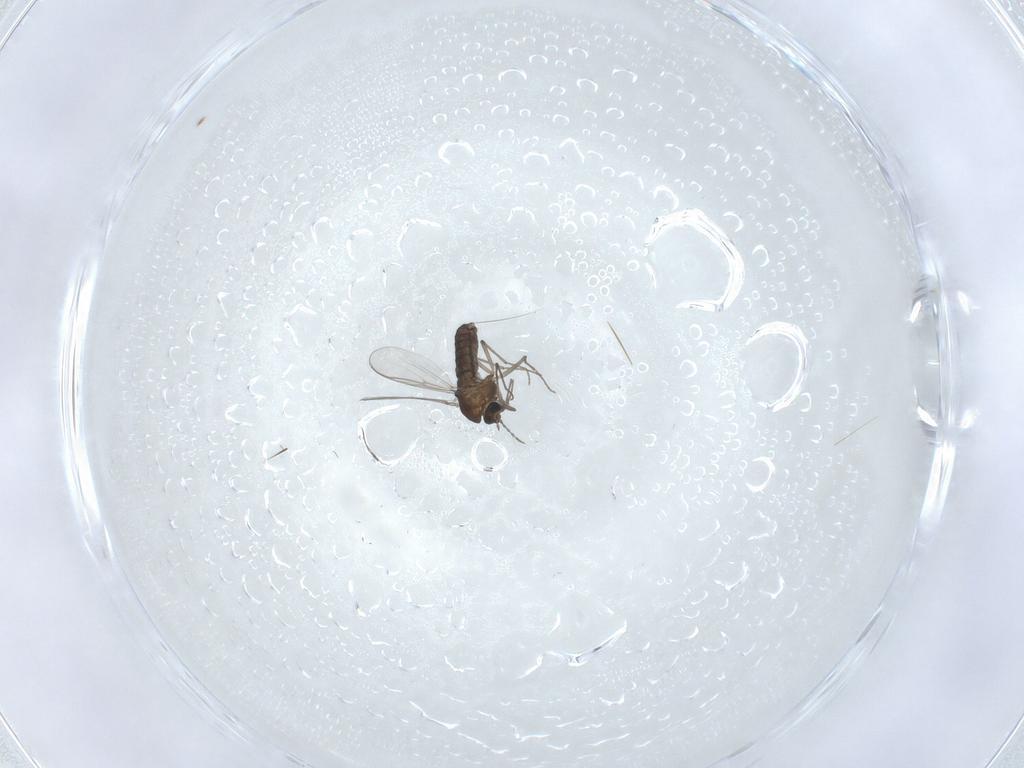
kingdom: Animalia
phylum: Arthropoda
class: Insecta
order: Diptera
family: Chironomidae
